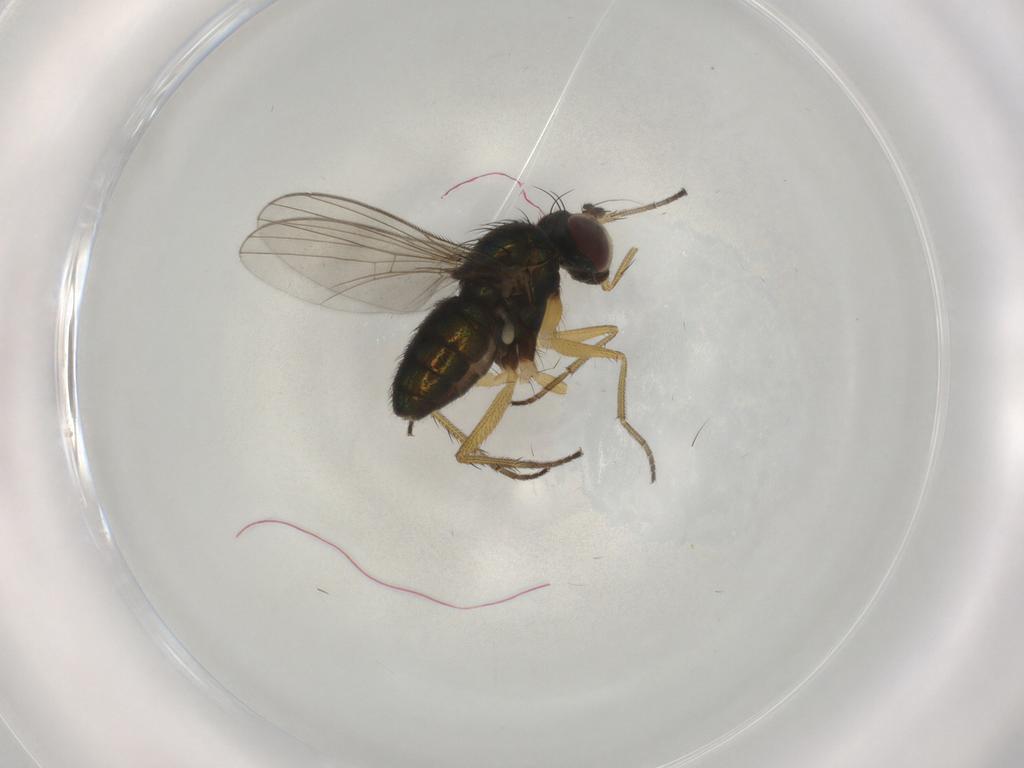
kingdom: Animalia
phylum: Arthropoda
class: Insecta
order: Diptera
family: Dolichopodidae
